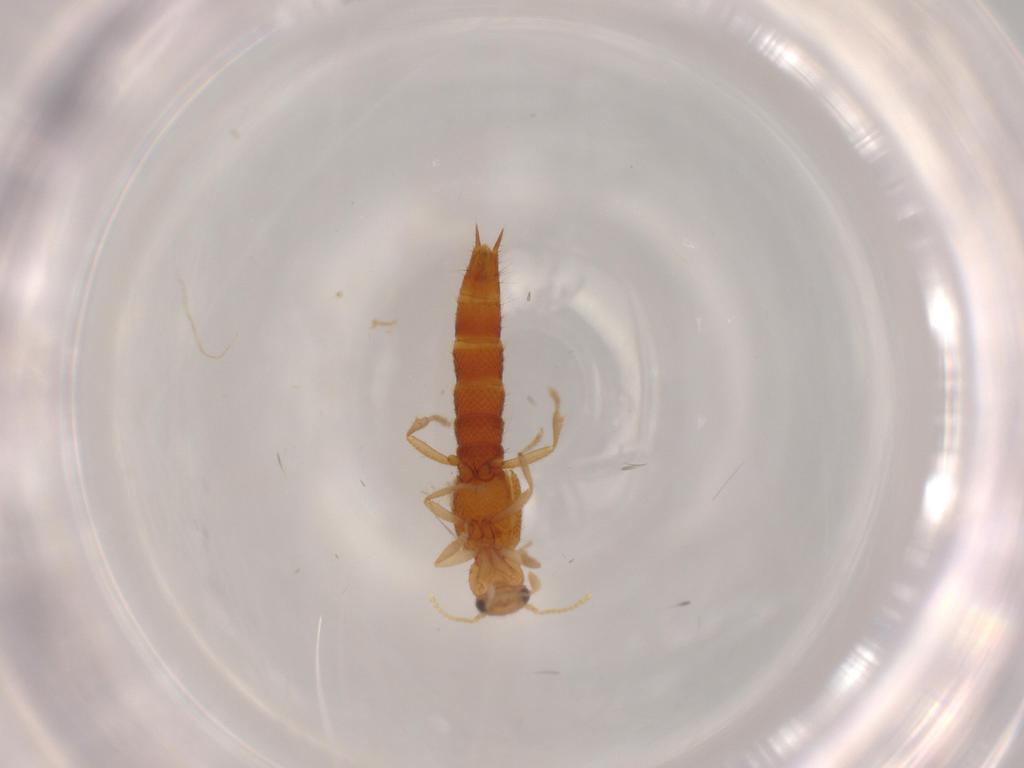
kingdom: Animalia
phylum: Arthropoda
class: Insecta
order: Coleoptera
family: Staphylinidae
